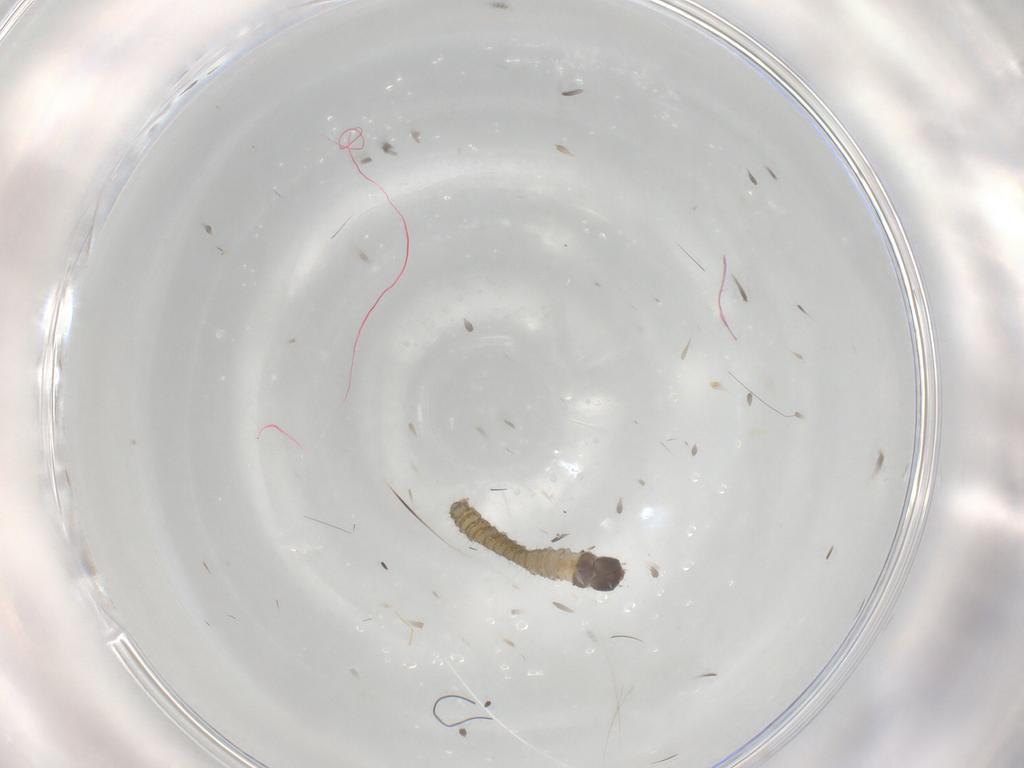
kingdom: Animalia
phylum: Arthropoda
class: Insecta
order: Lepidoptera
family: Tortricidae
